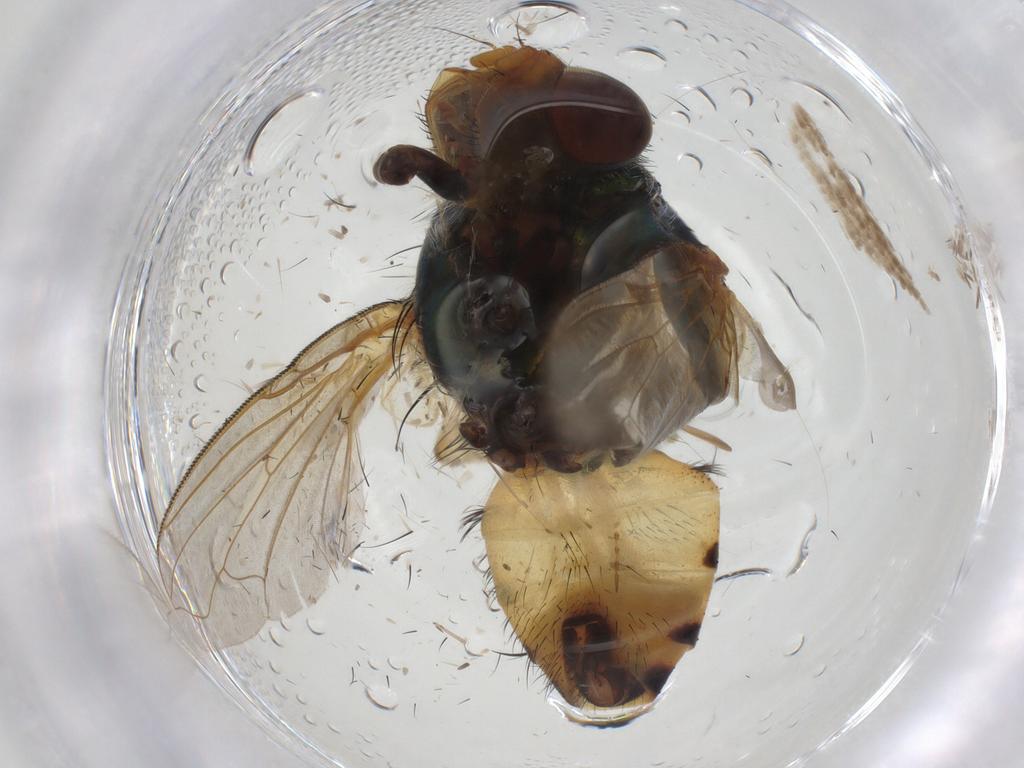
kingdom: Animalia
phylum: Arthropoda
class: Insecta
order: Diptera
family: Calliphoridae
